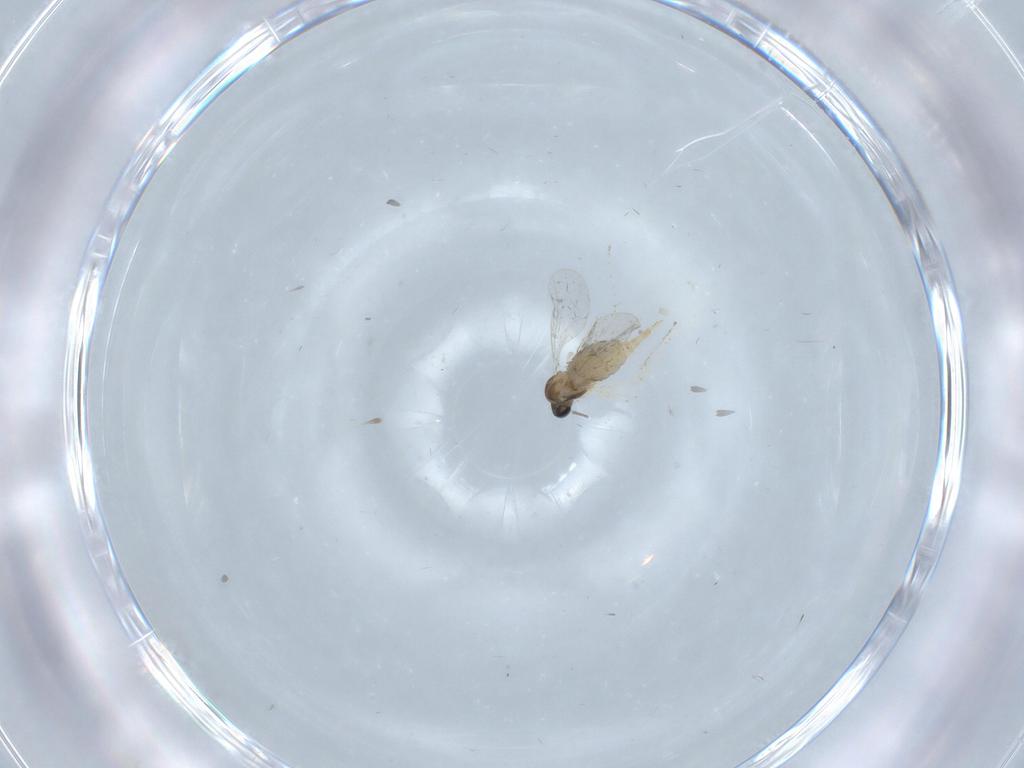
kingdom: Animalia
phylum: Arthropoda
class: Insecta
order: Diptera
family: Cecidomyiidae
